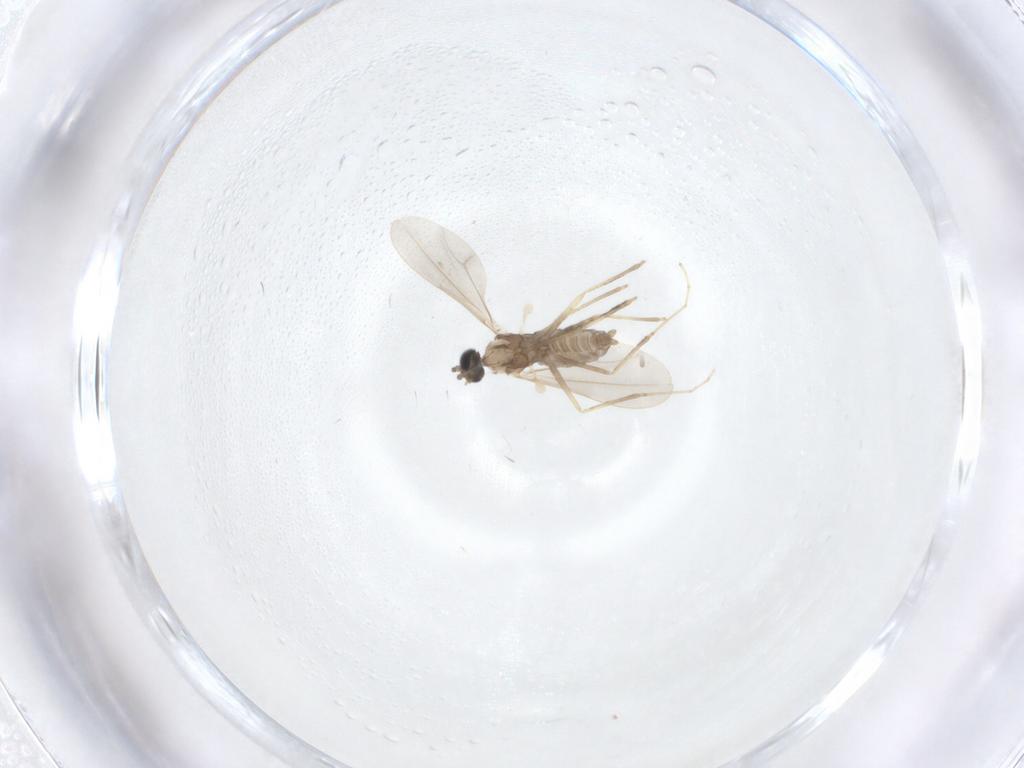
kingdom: Animalia
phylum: Arthropoda
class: Insecta
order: Diptera
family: Cecidomyiidae
